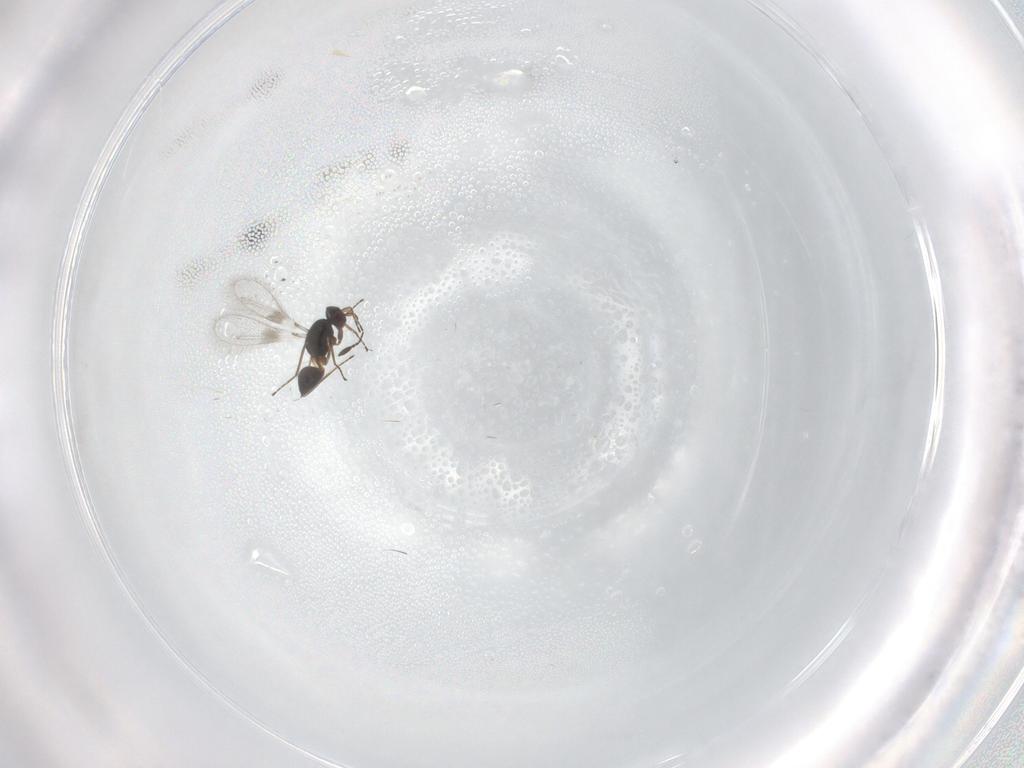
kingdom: Animalia
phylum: Arthropoda
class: Insecta
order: Hymenoptera
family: Mymaridae
